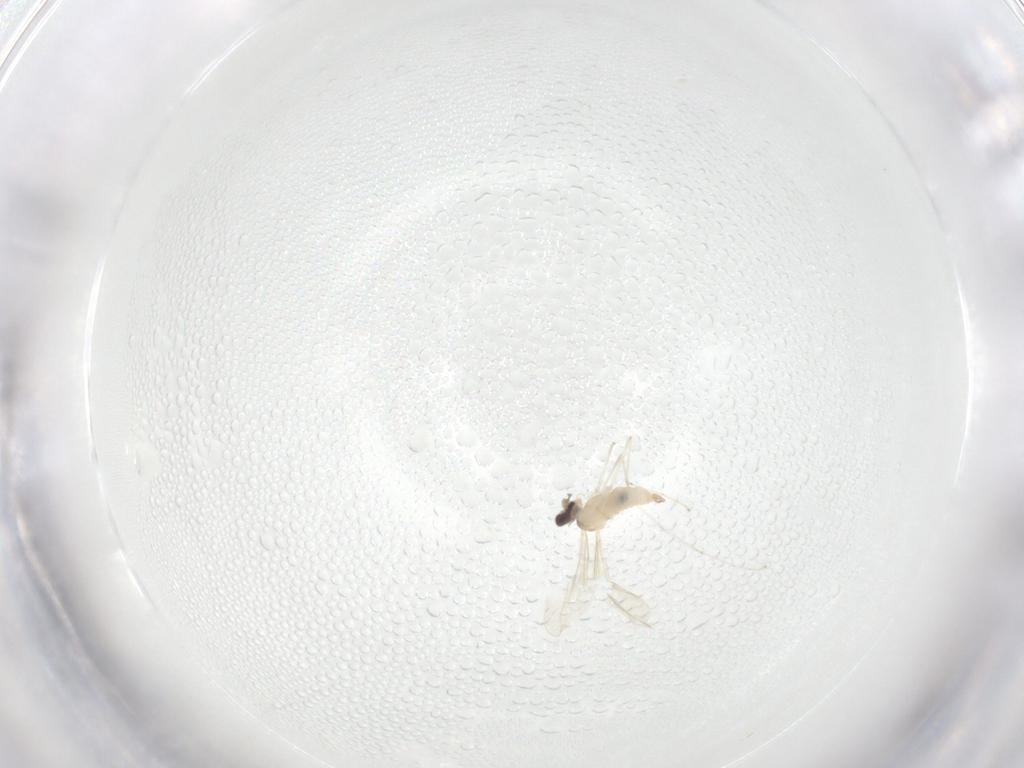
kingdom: Animalia
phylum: Arthropoda
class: Insecta
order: Diptera
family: Cecidomyiidae
